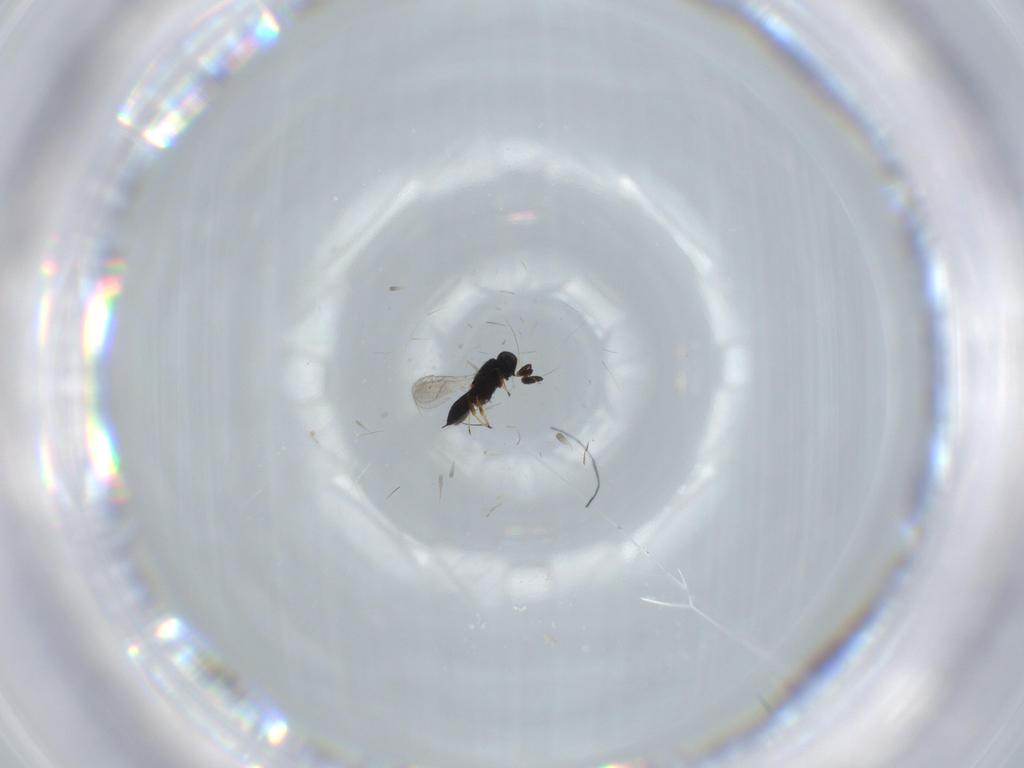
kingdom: Animalia
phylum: Arthropoda
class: Insecta
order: Hymenoptera
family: Scelionidae
